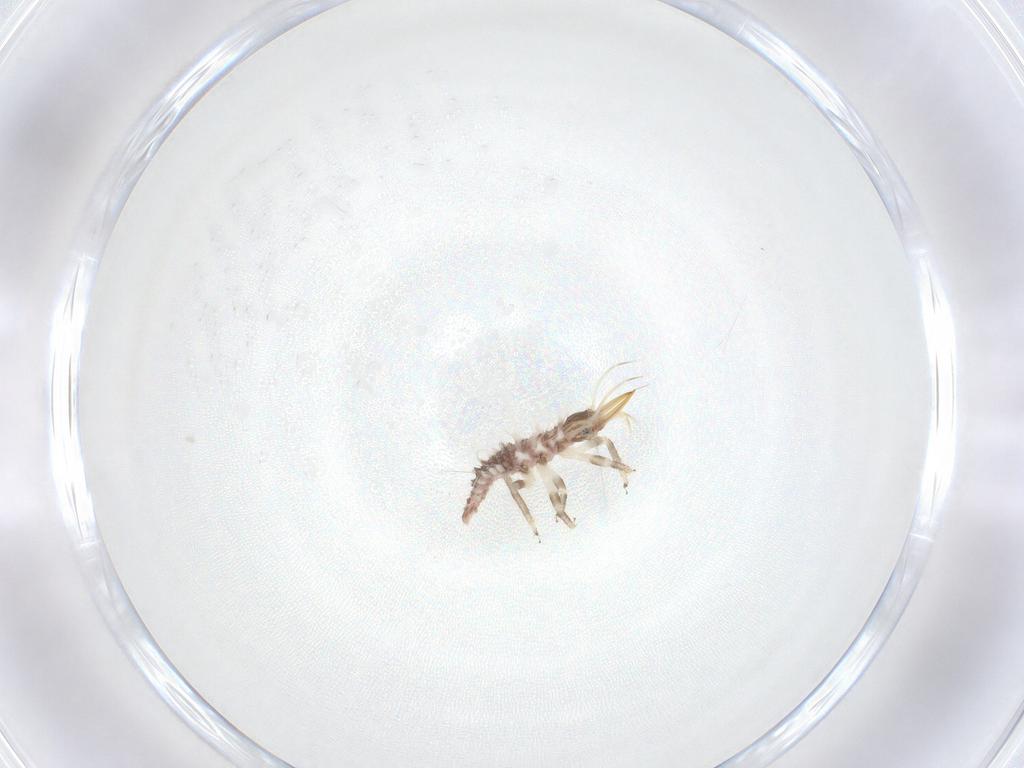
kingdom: Animalia
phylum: Arthropoda
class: Insecta
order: Neuroptera
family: Chrysopidae
